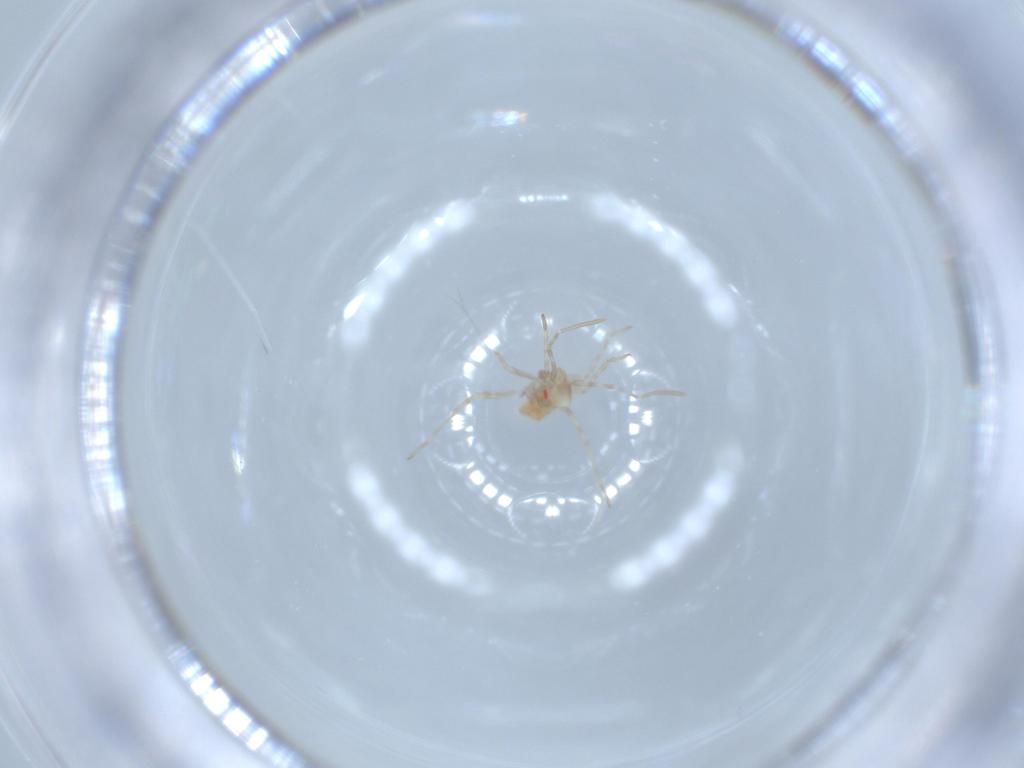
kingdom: Animalia
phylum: Arthropoda
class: Insecta
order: Hemiptera
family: Miridae
